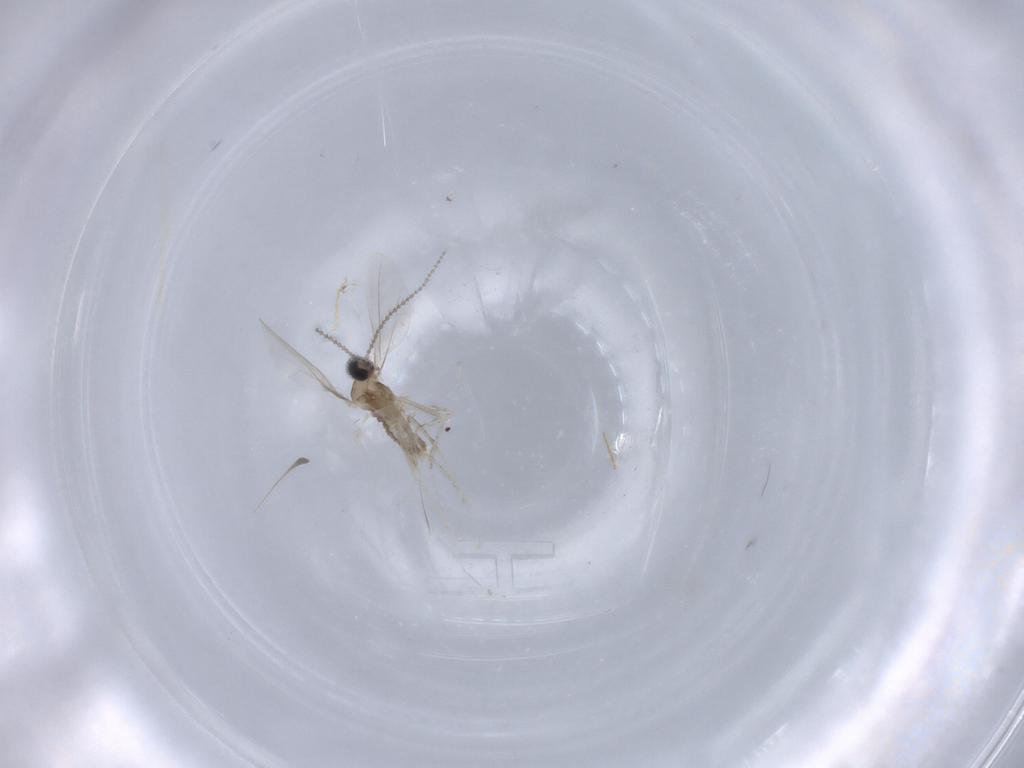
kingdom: Animalia
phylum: Arthropoda
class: Insecta
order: Diptera
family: Cecidomyiidae
